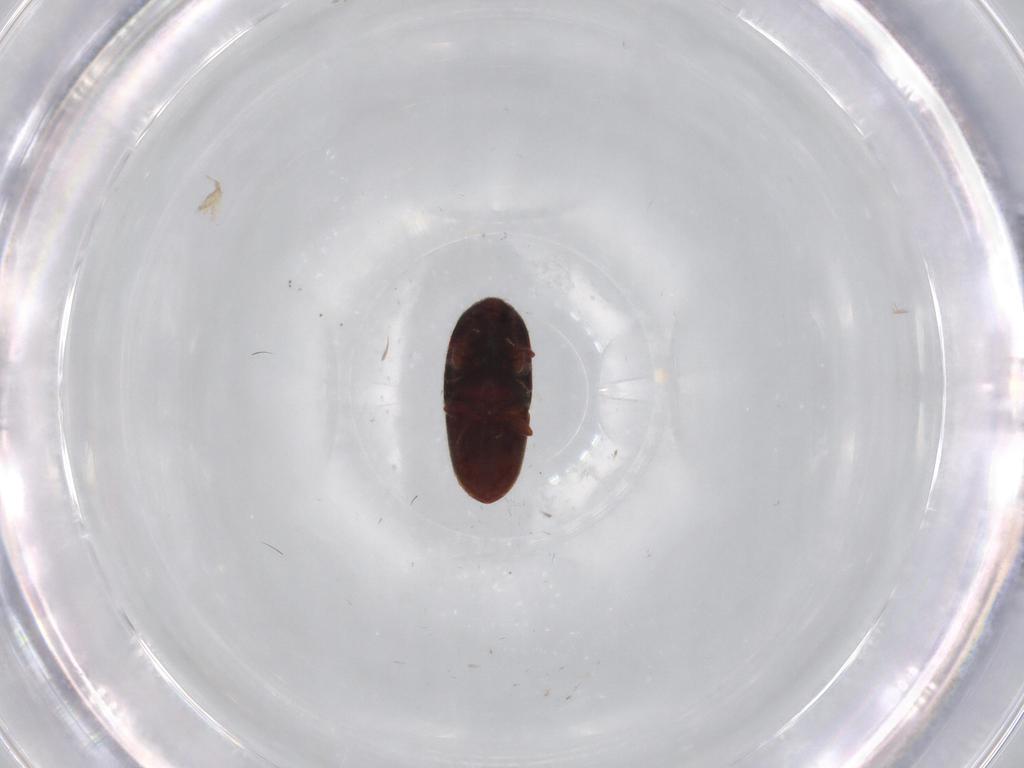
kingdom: Animalia
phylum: Arthropoda
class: Insecta
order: Coleoptera
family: Throscidae
